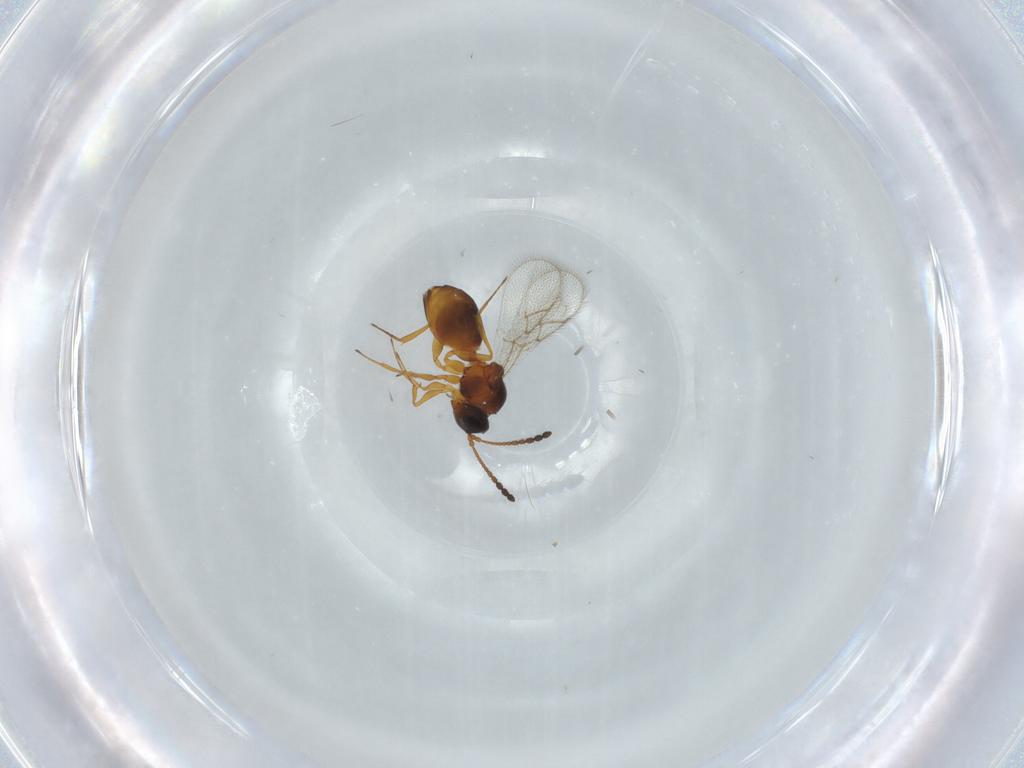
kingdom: Animalia
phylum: Arthropoda
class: Insecta
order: Hymenoptera
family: Figitidae
